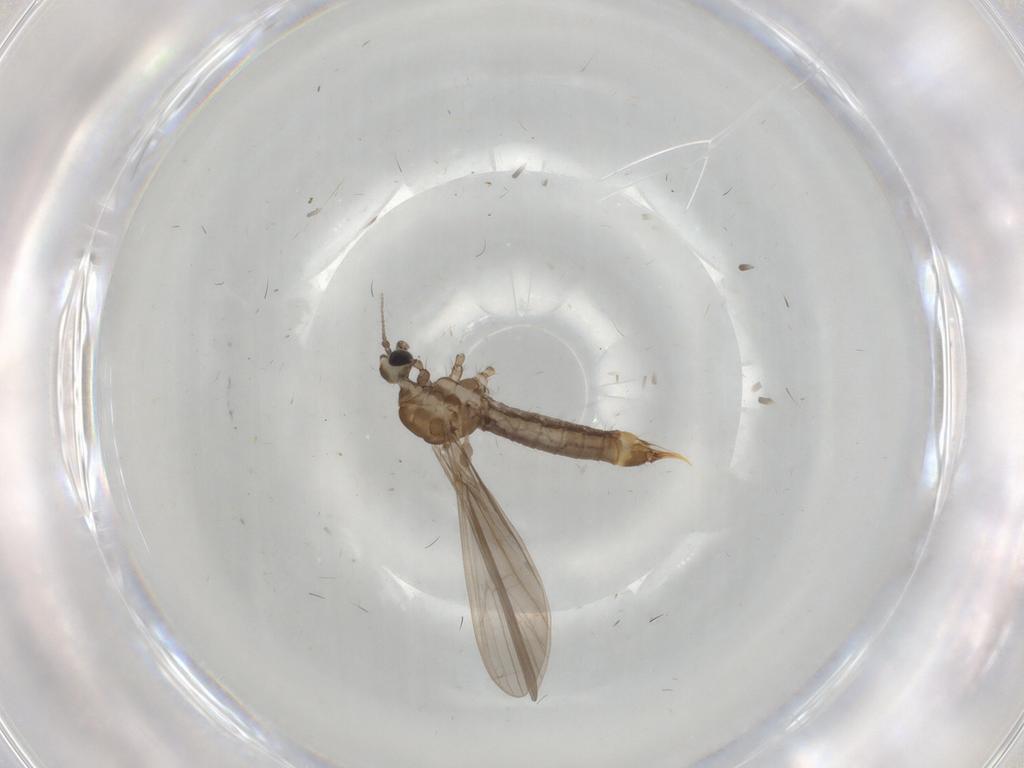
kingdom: Animalia
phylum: Arthropoda
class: Insecta
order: Diptera
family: Limoniidae
